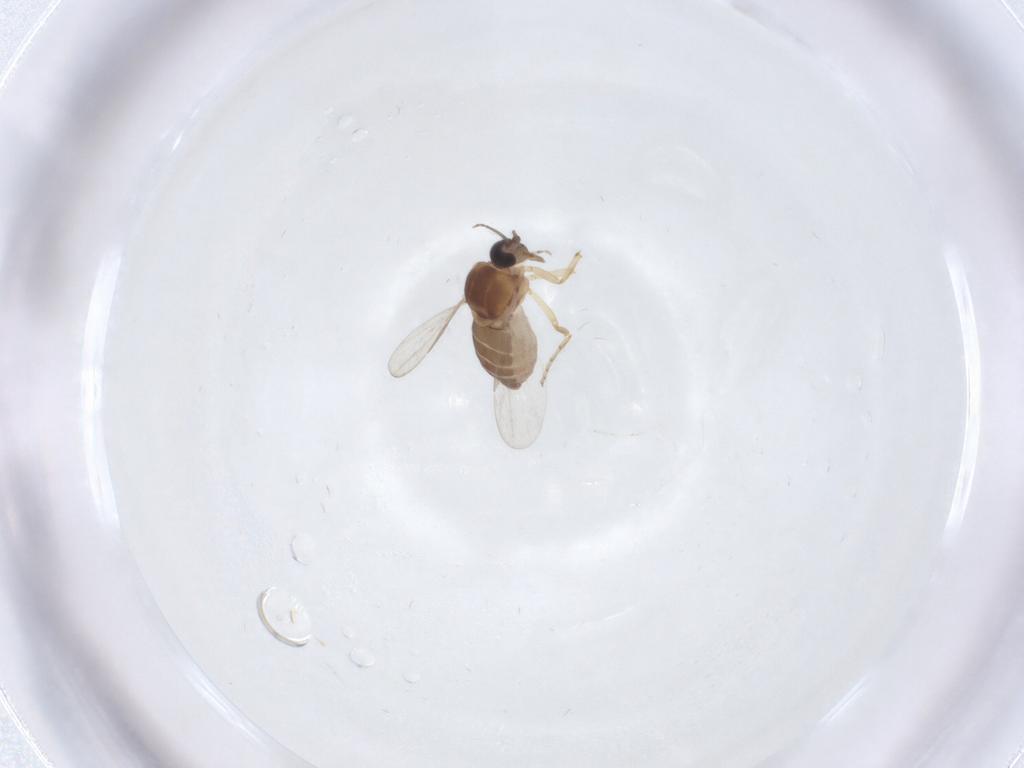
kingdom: Animalia
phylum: Arthropoda
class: Insecta
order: Diptera
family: Ceratopogonidae
